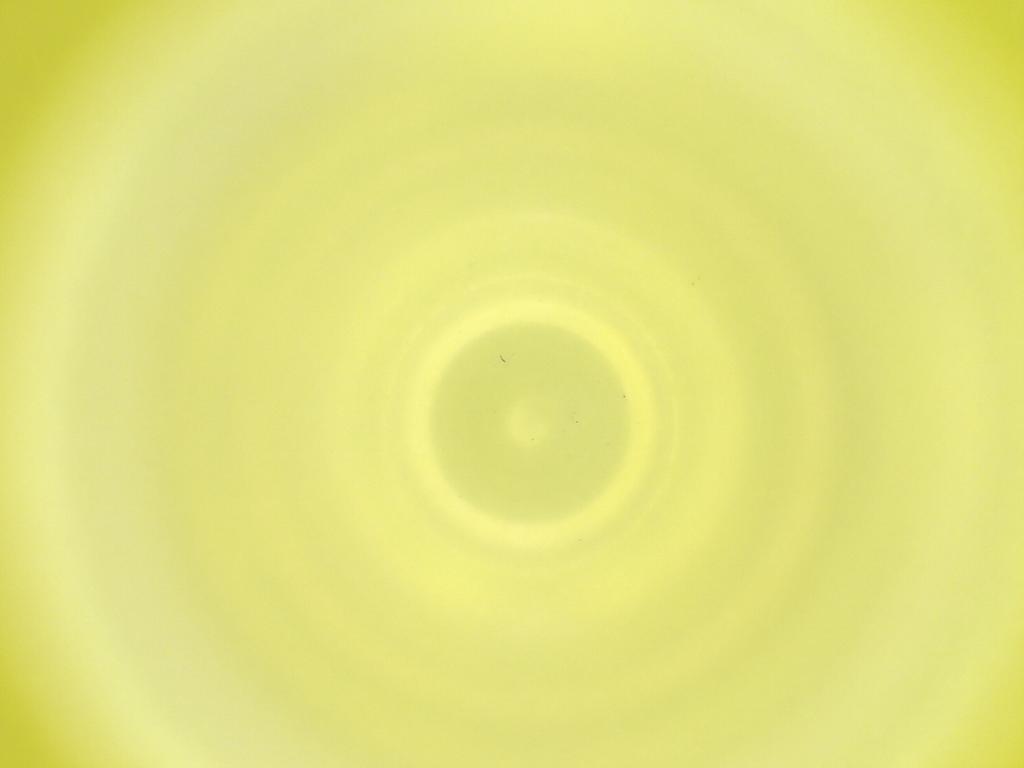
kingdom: Animalia
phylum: Arthropoda
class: Insecta
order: Diptera
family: Cecidomyiidae
